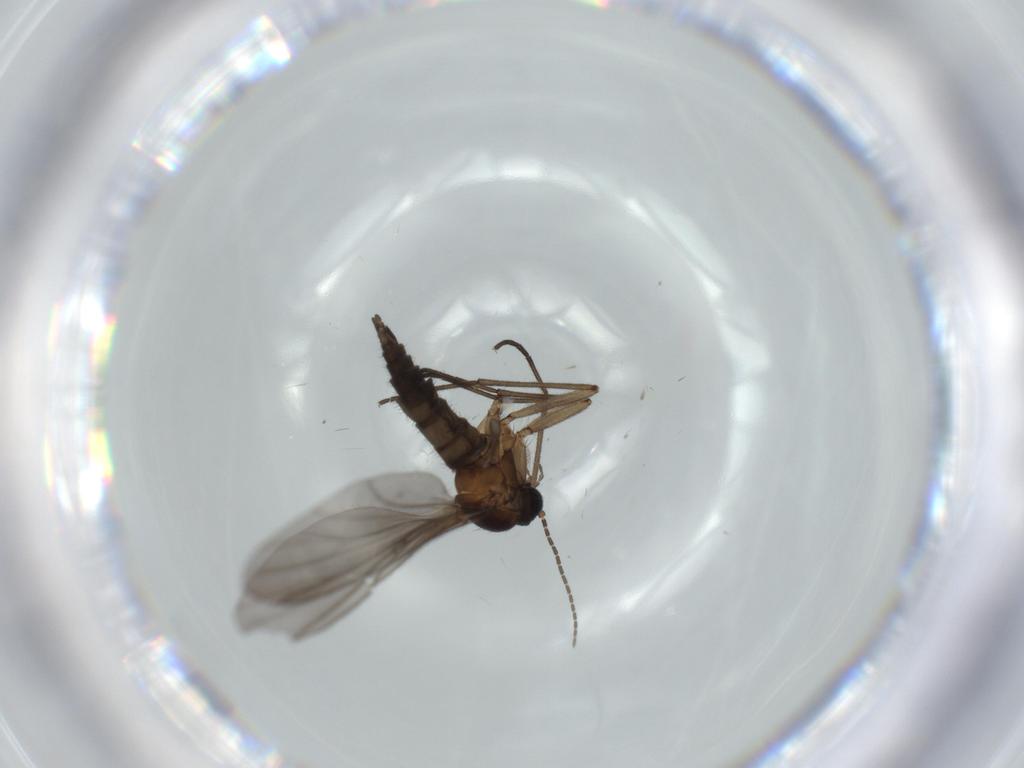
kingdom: Animalia
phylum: Arthropoda
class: Insecta
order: Diptera
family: Sciaridae
